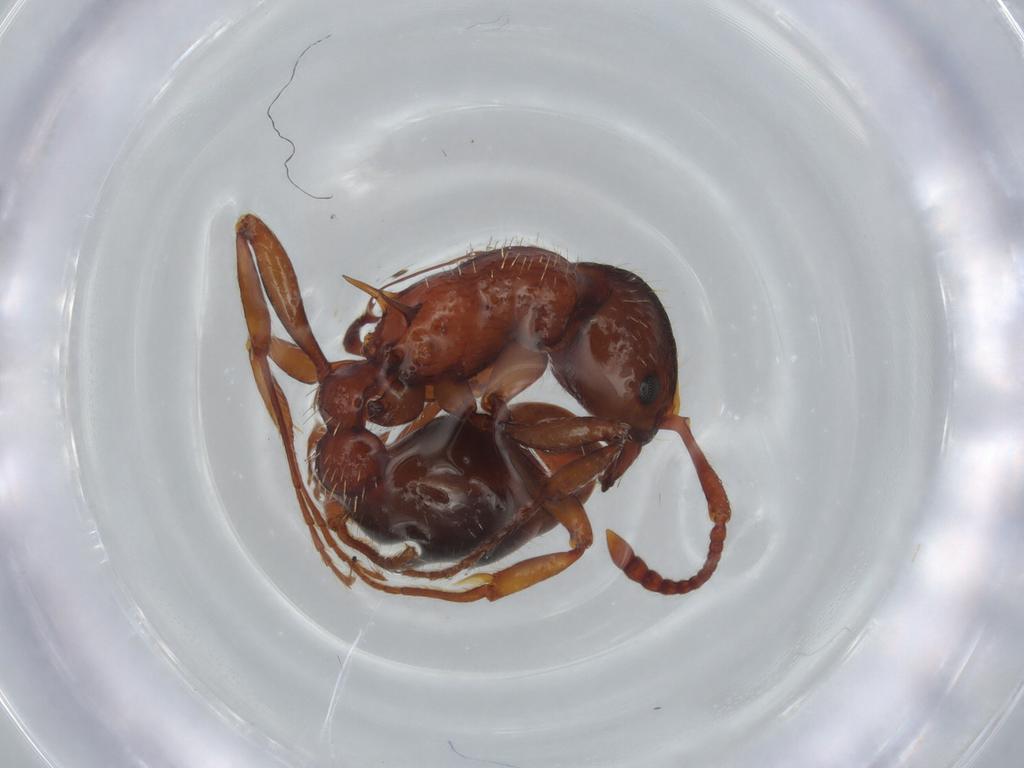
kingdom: Animalia
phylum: Arthropoda
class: Insecta
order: Hymenoptera
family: Formicidae
